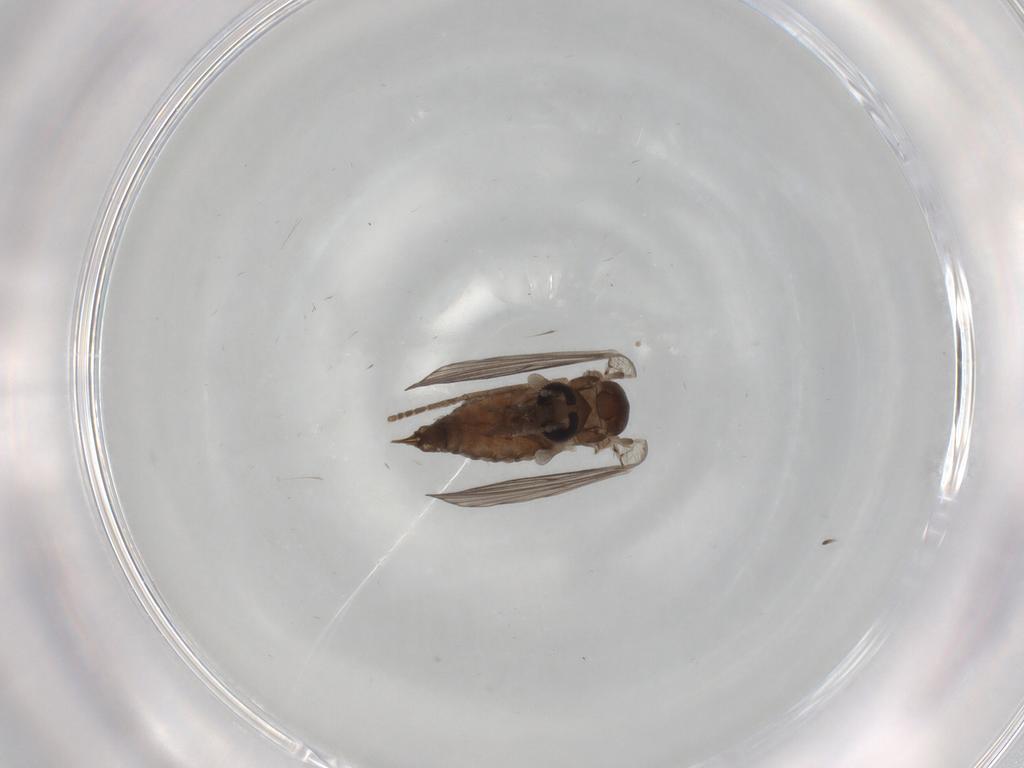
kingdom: Animalia
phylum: Arthropoda
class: Insecta
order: Diptera
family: Psychodidae
